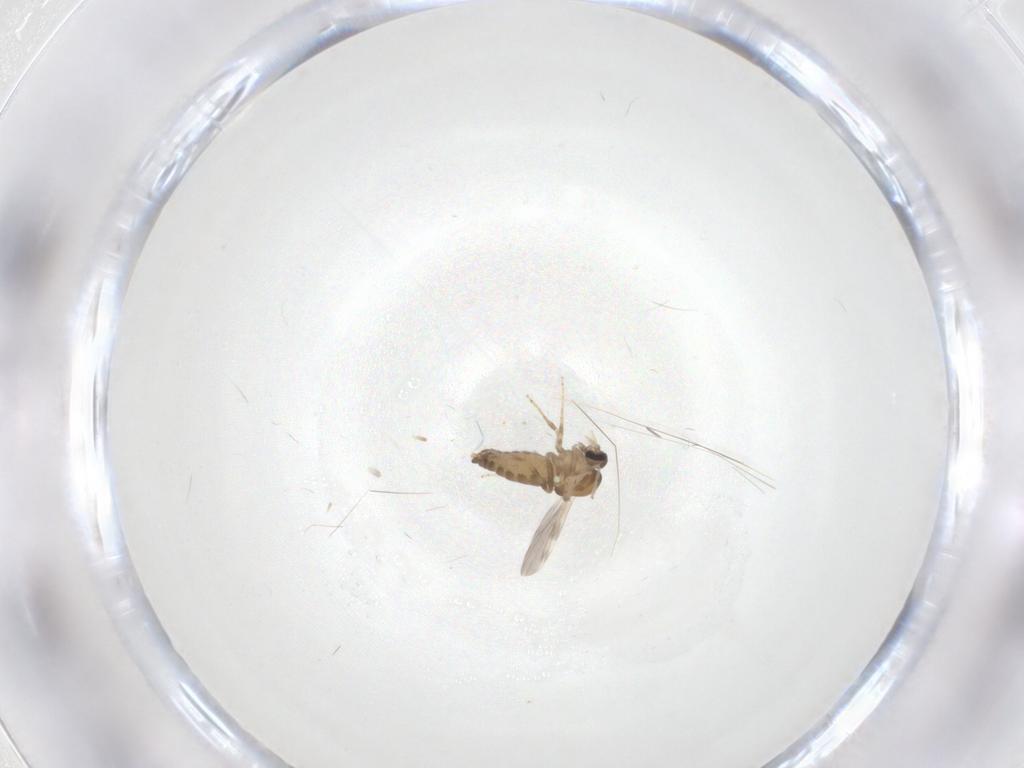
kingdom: Animalia
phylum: Arthropoda
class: Insecta
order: Diptera
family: Ceratopogonidae
